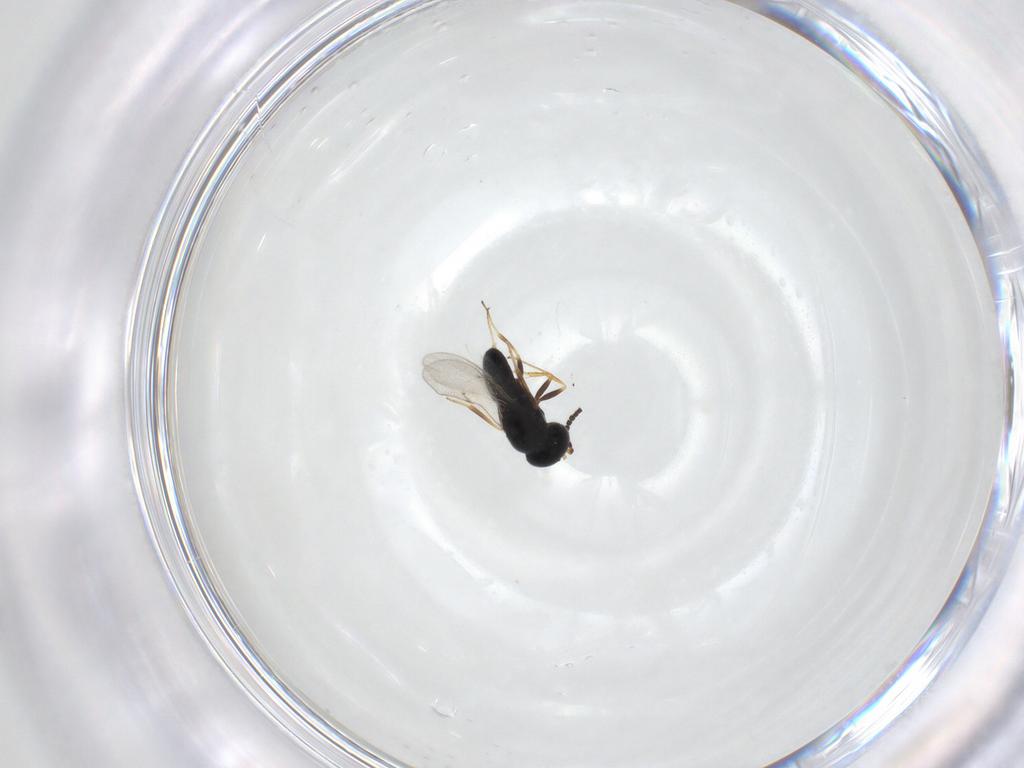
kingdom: Animalia
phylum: Arthropoda
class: Insecta
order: Hymenoptera
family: Scelionidae
